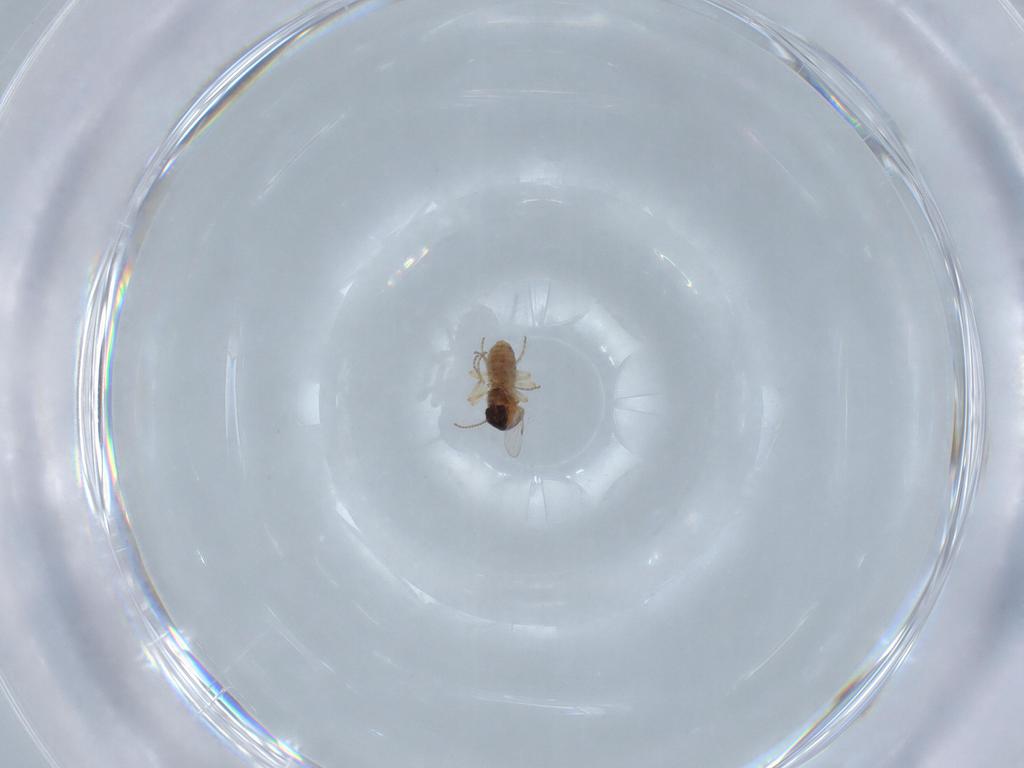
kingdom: Animalia
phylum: Arthropoda
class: Insecta
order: Diptera
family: Ceratopogonidae
